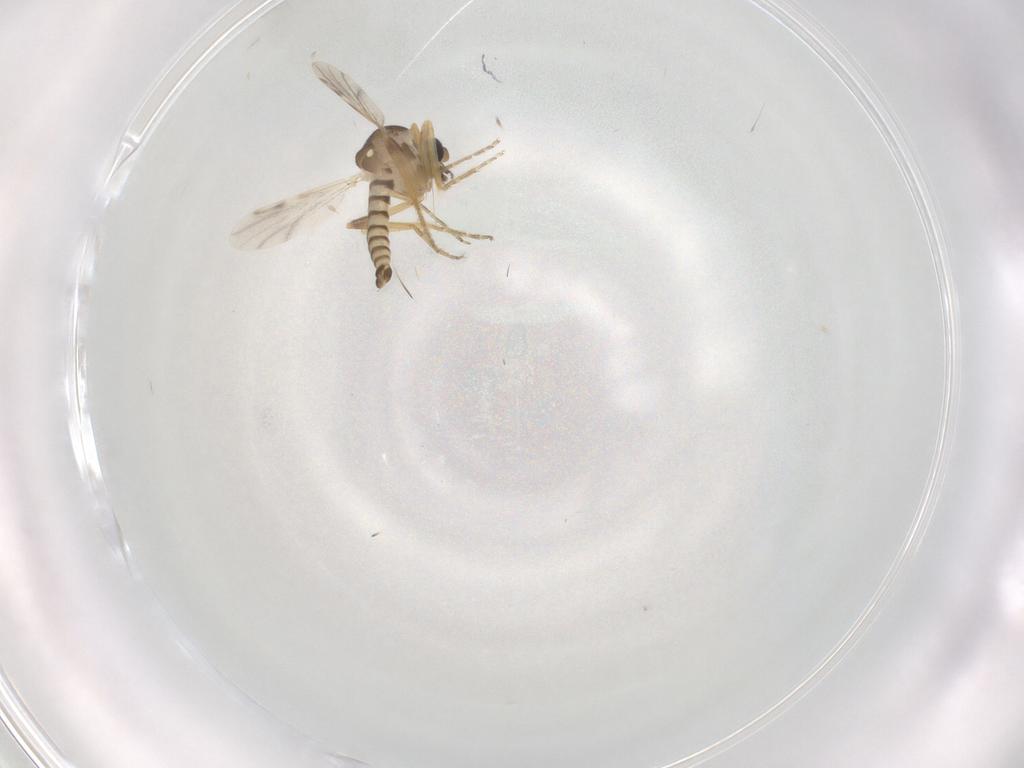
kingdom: Animalia
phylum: Arthropoda
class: Insecta
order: Diptera
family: Ceratopogonidae
